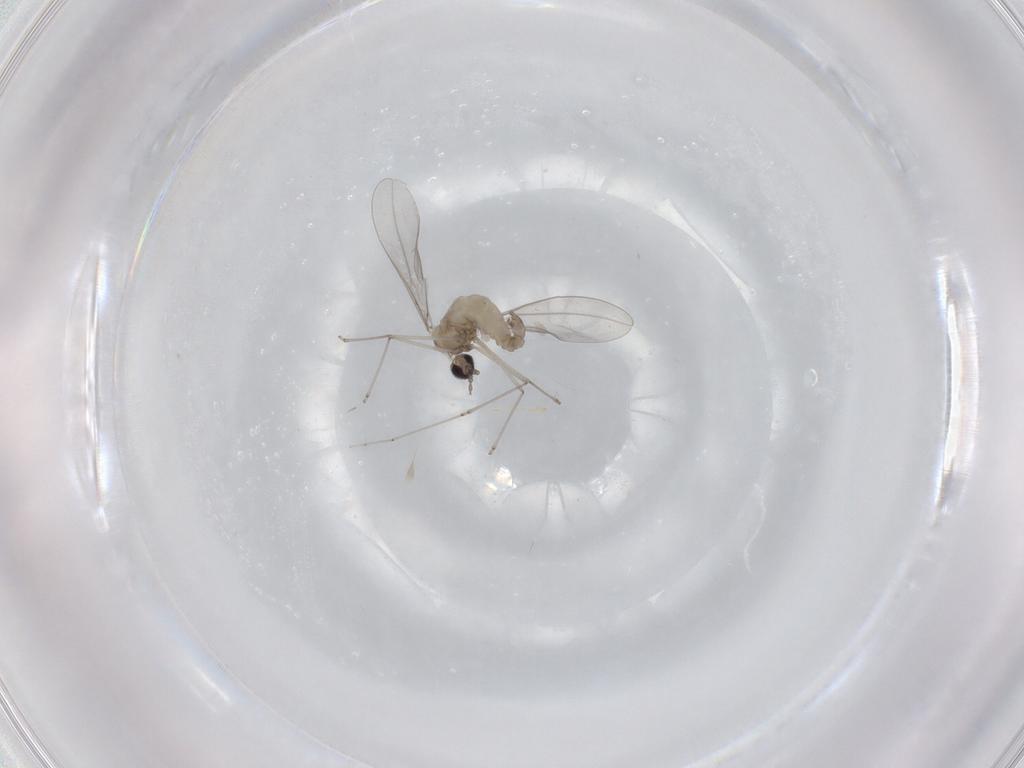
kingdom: Animalia
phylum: Arthropoda
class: Insecta
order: Diptera
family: Cecidomyiidae
